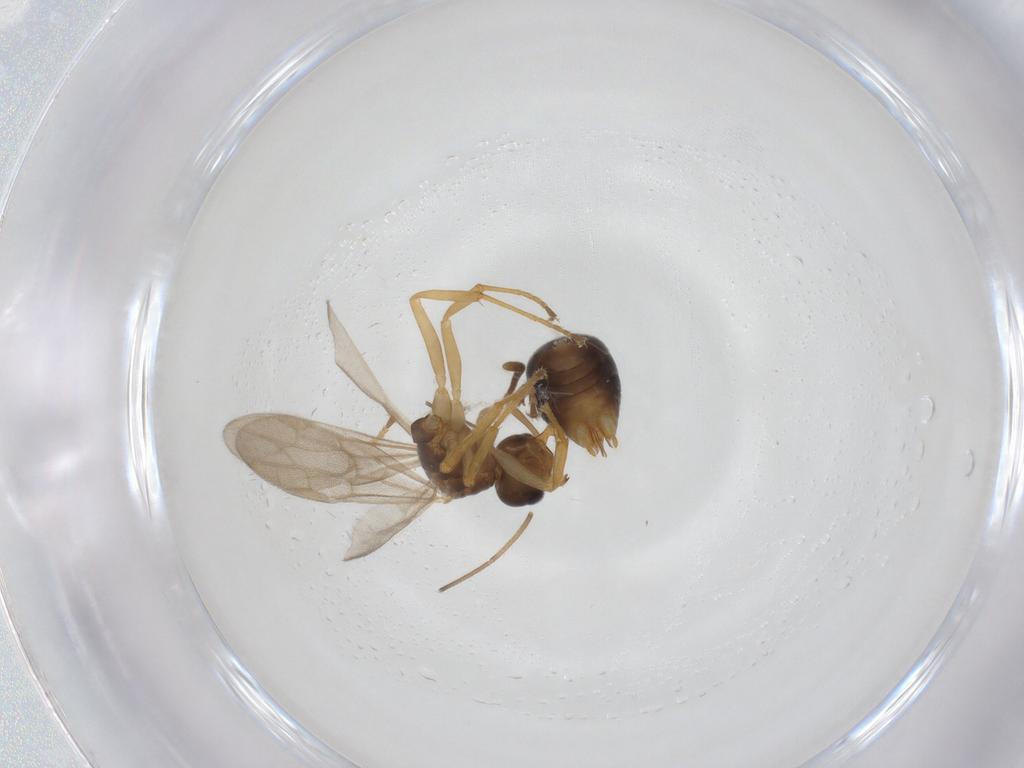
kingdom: Animalia
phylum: Arthropoda
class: Insecta
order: Hymenoptera
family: Formicidae
